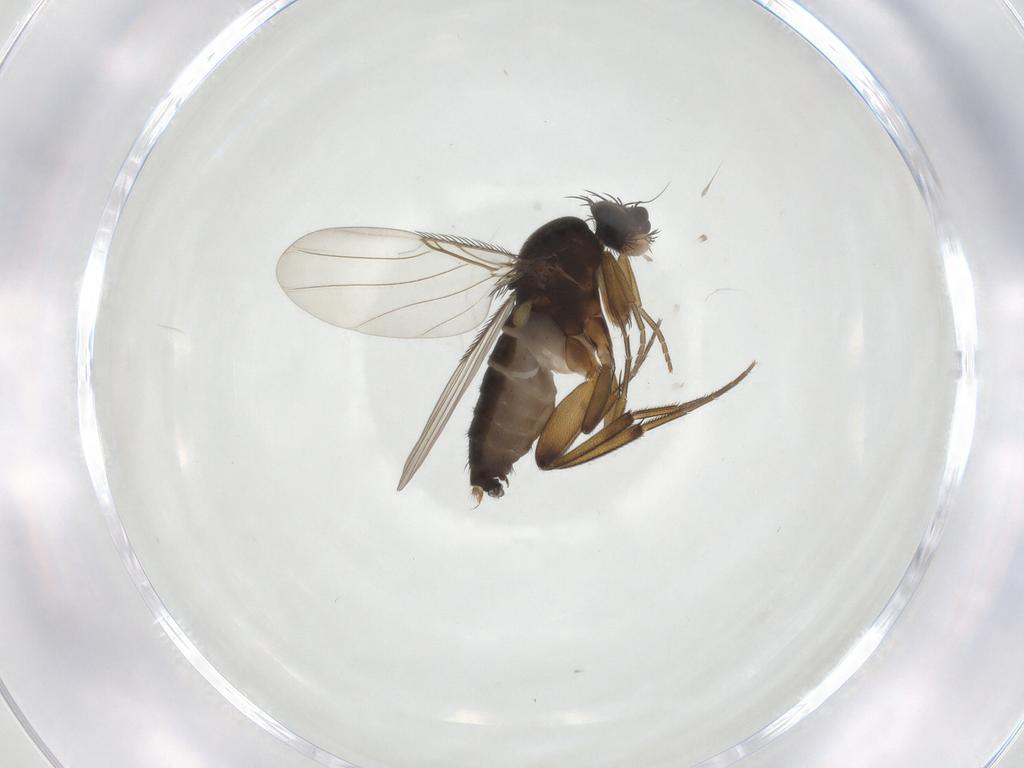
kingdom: Animalia
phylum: Arthropoda
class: Insecta
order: Diptera
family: Phoridae
